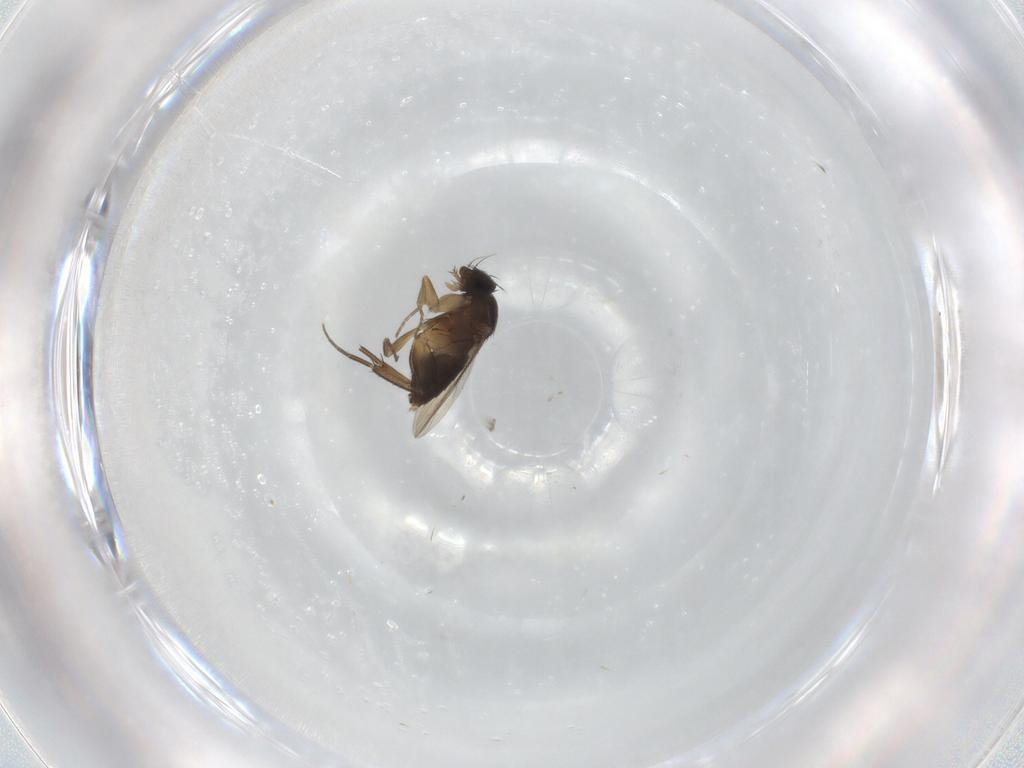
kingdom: Animalia
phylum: Arthropoda
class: Insecta
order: Diptera
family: Phoridae
